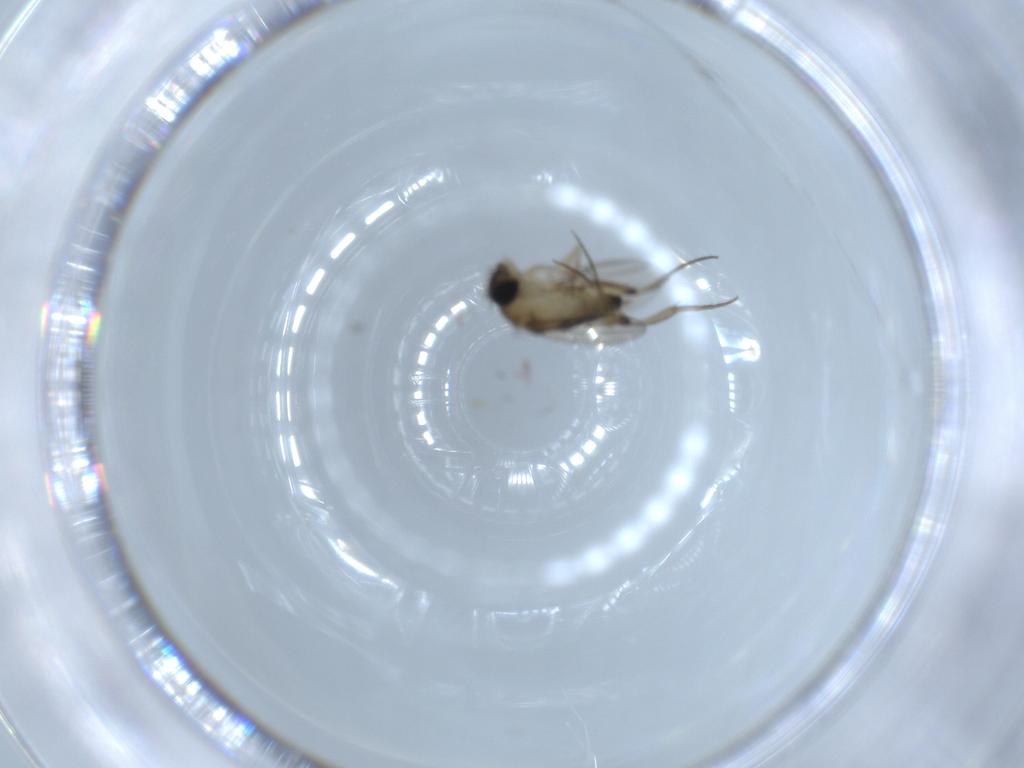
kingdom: Animalia
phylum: Arthropoda
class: Insecta
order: Diptera
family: Phoridae
